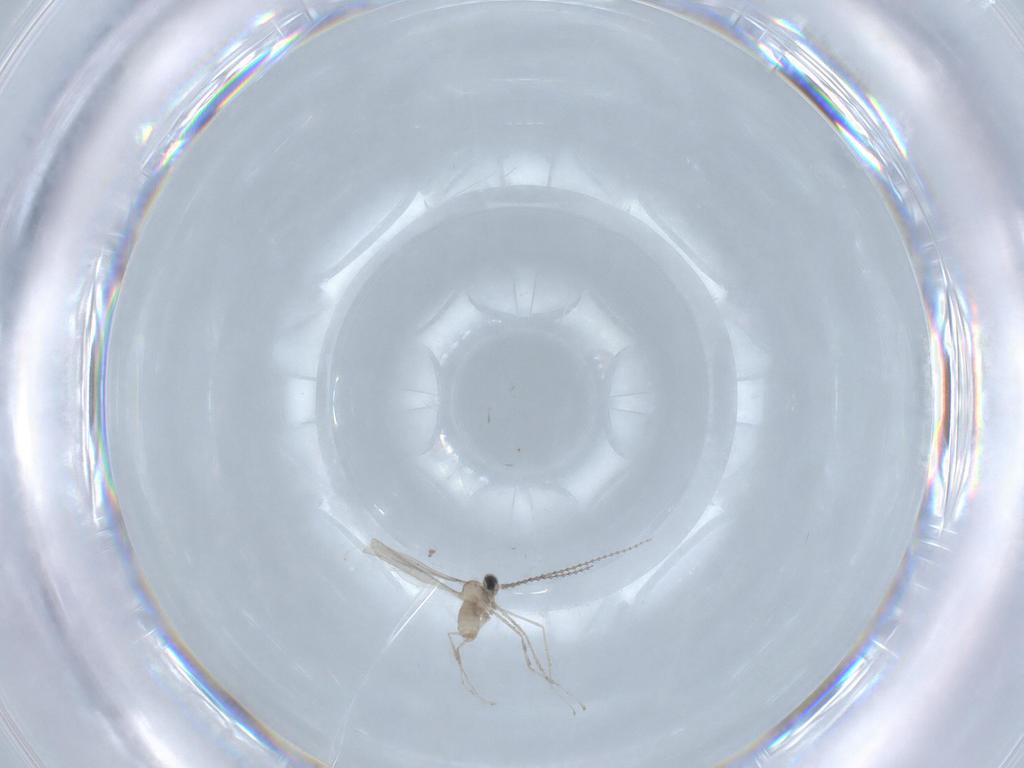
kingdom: Animalia
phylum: Arthropoda
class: Insecta
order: Diptera
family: Cecidomyiidae
